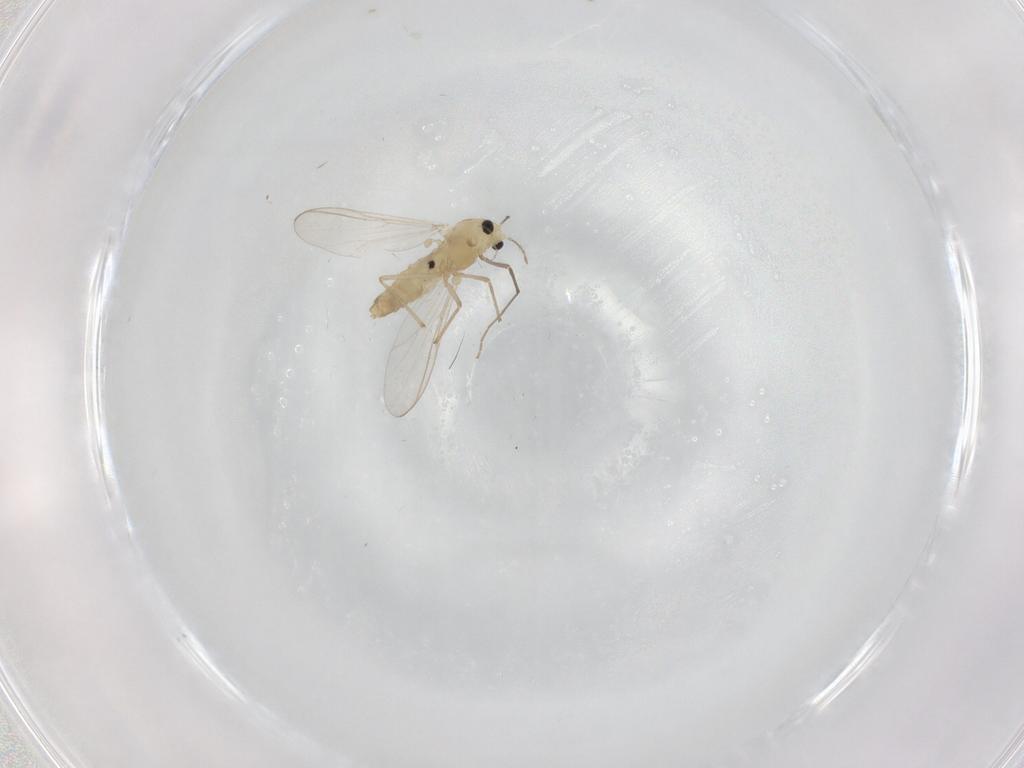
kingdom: Animalia
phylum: Arthropoda
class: Insecta
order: Diptera
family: Chironomidae
